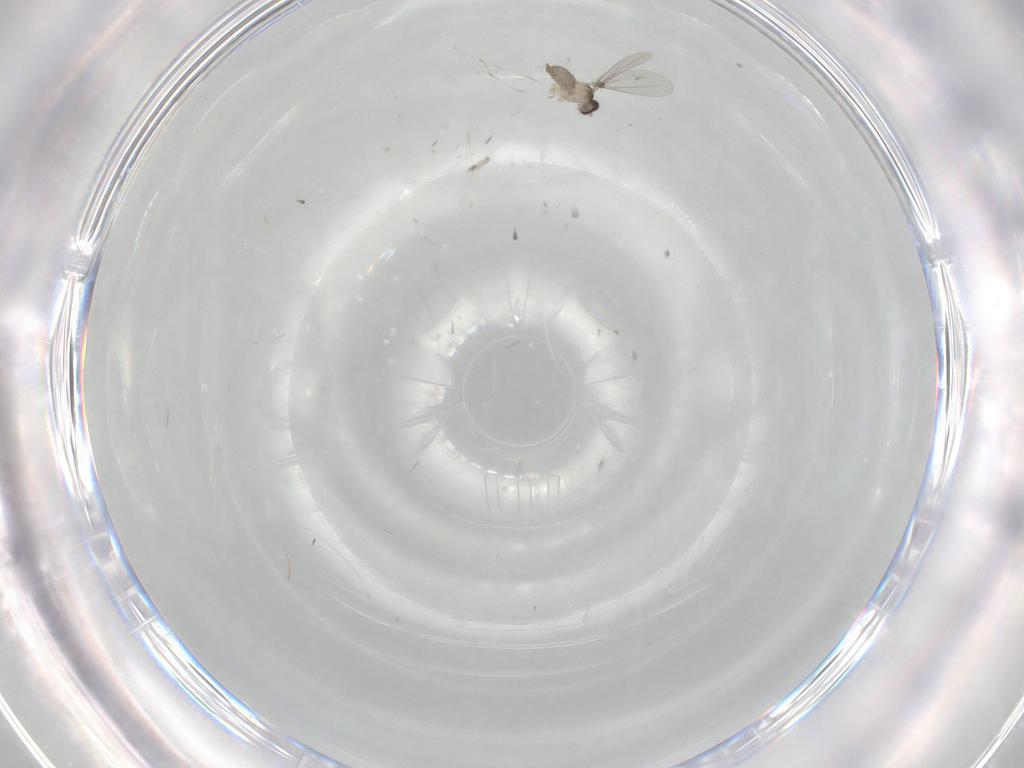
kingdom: Animalia
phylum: Arthropoda
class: Insecta
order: Diptera
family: Cecidomyiidae
